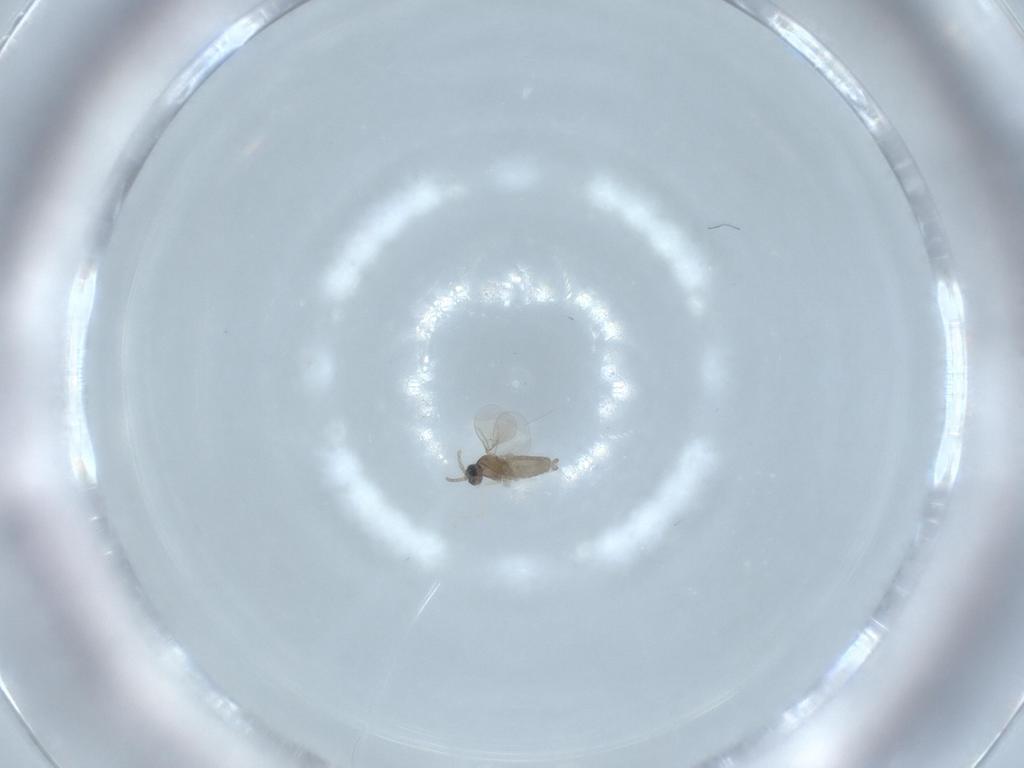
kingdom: Animalia
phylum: Arthropoda
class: Insecta
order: Diptera
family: Cecidomyiidae
